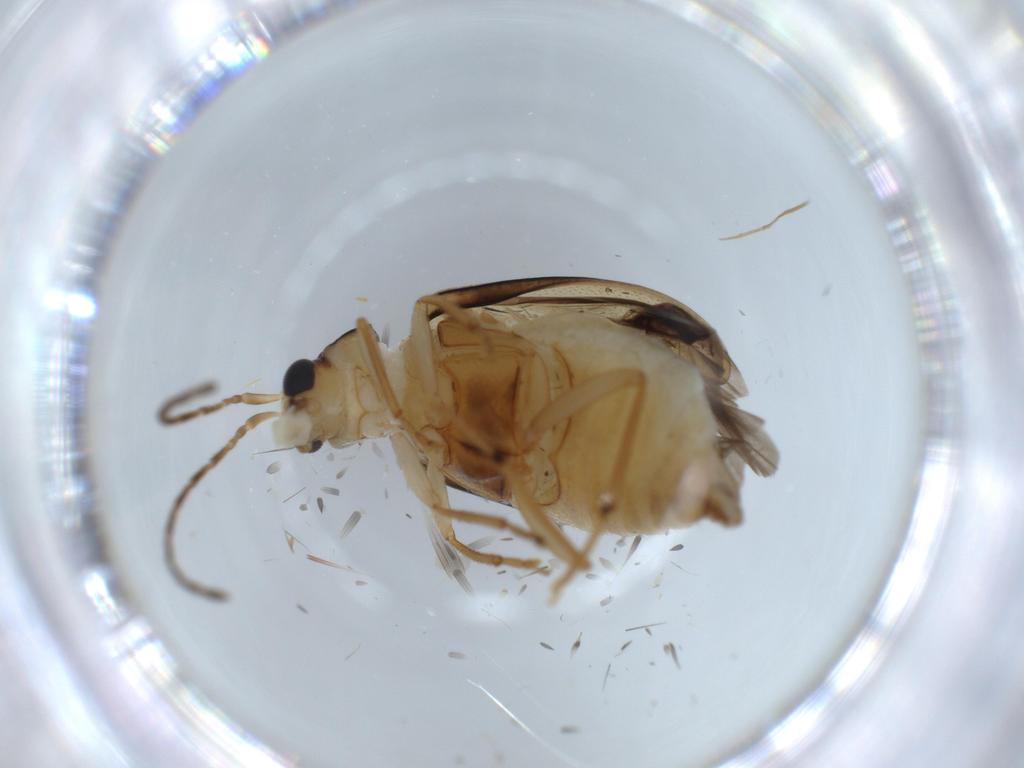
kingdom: Animalia
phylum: Arthropoda
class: Insecta
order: Coleoptera
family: Chrysomelidae
